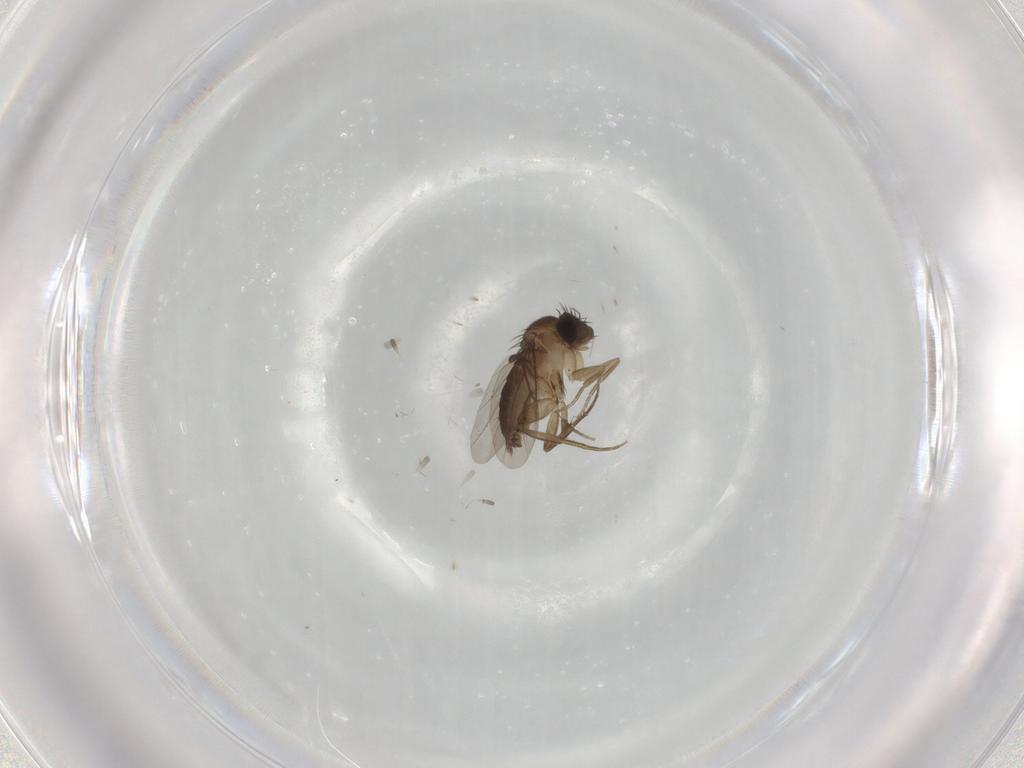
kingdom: Animalia
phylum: Arthropoda
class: Insecta
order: Diptera
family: Phoridae
